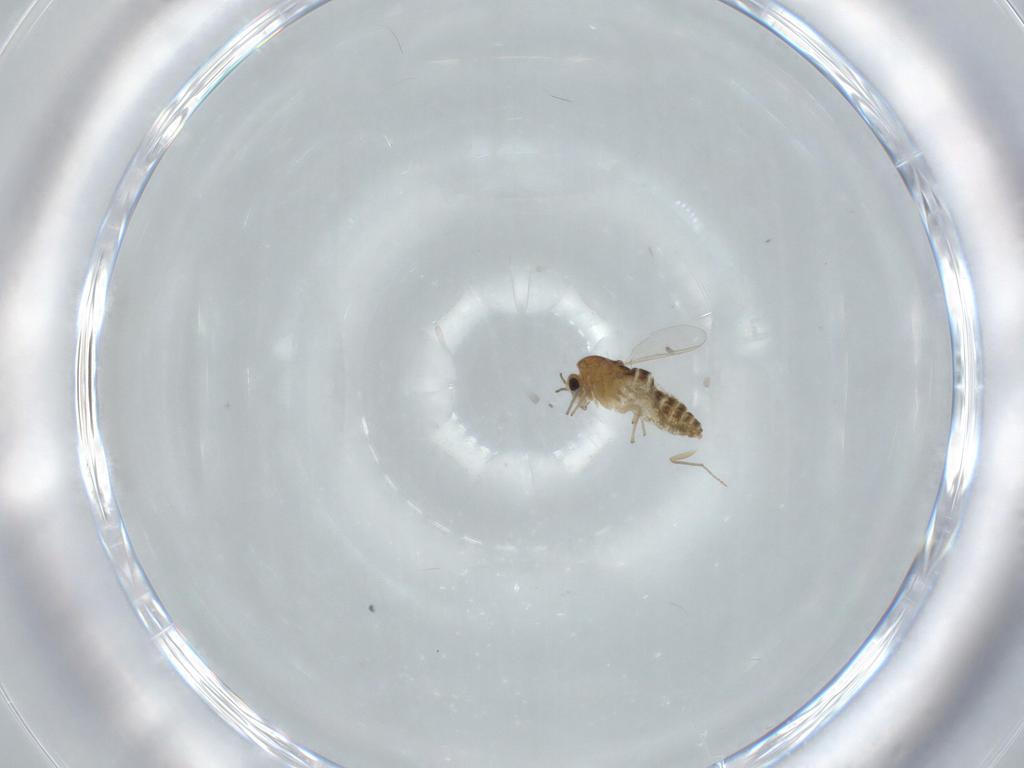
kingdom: Animalia
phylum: Arthropoda
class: Insecta
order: Diptera
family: Chironomidae
